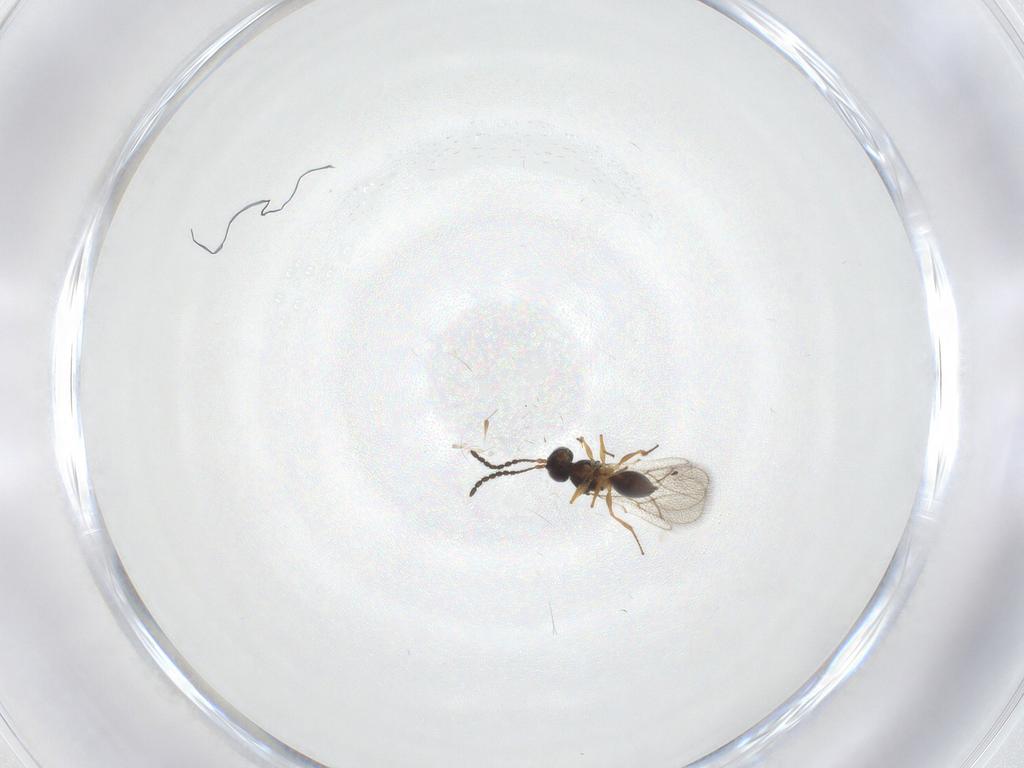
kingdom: Animalia
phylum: Arthropoda
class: Insecta
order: Hymenoptera
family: Figitidae
